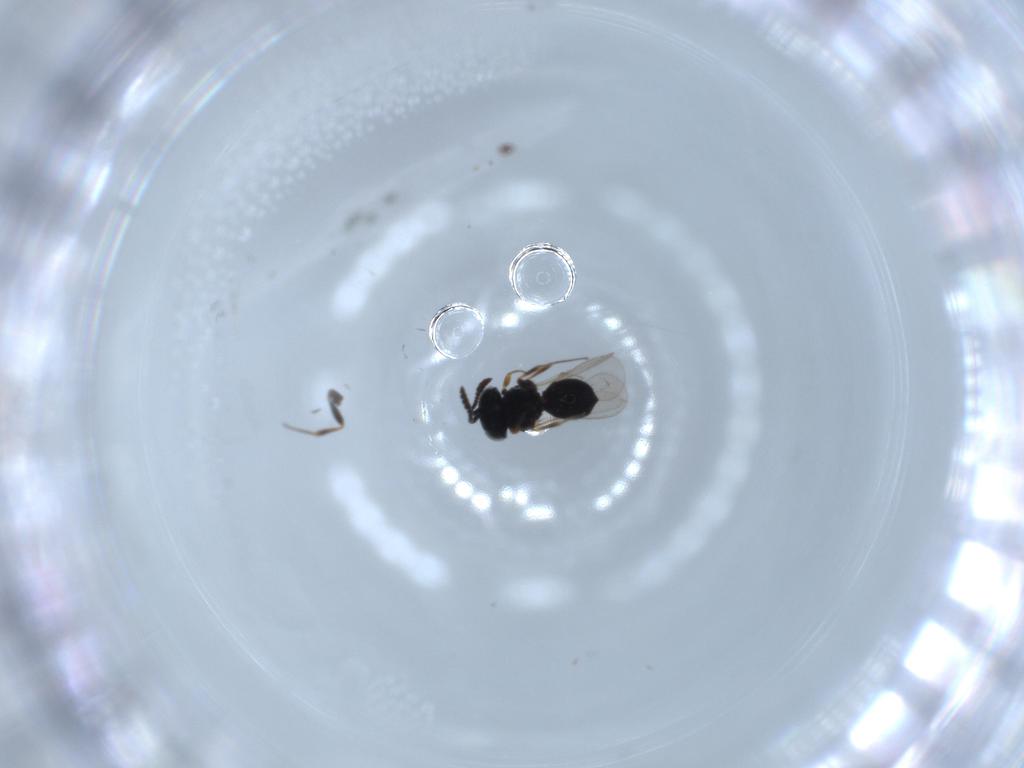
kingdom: Animalia
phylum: Arthropoda
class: Insecta
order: Hymenoptera
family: Scelionidae
